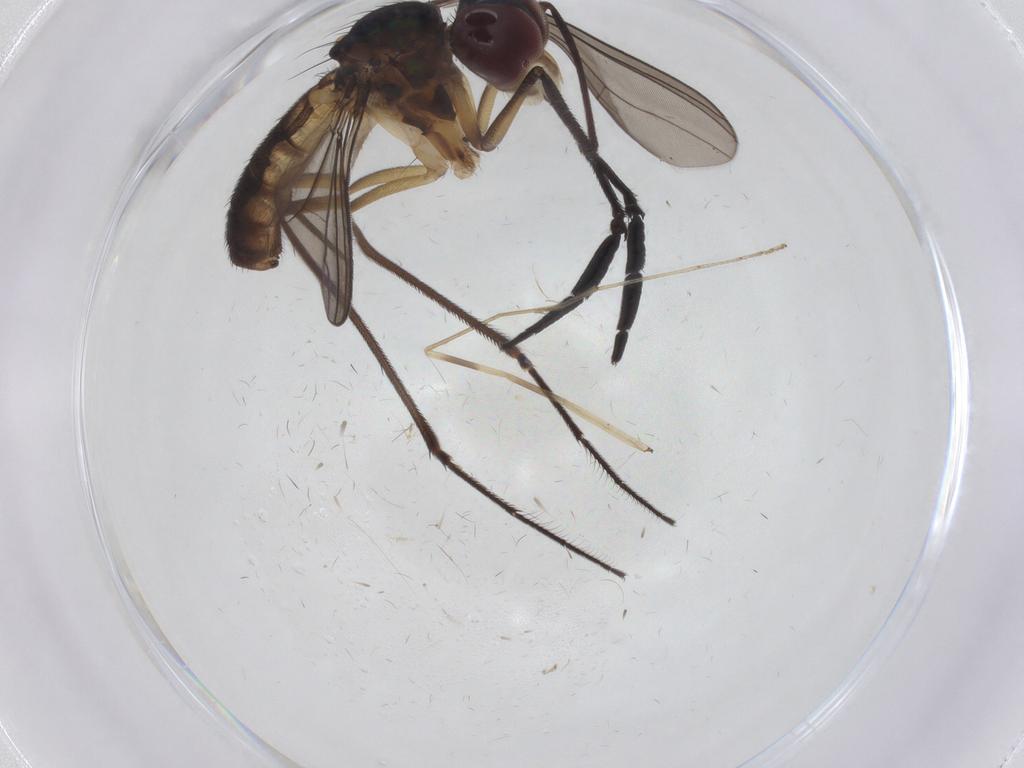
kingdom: Animalia
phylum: Arthropoda
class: Insecta
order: Diptera
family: Dolichopodidae
